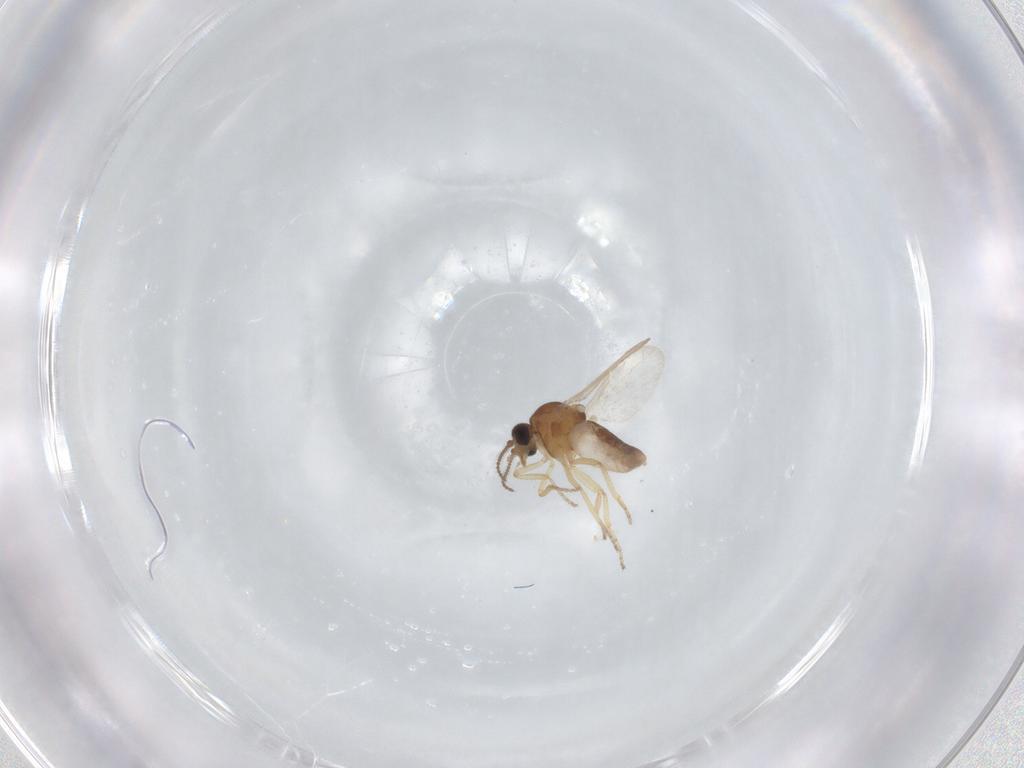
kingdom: Animalia
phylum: Arthropoda
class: Insecta
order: Diptera
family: Ceratopogonidae
